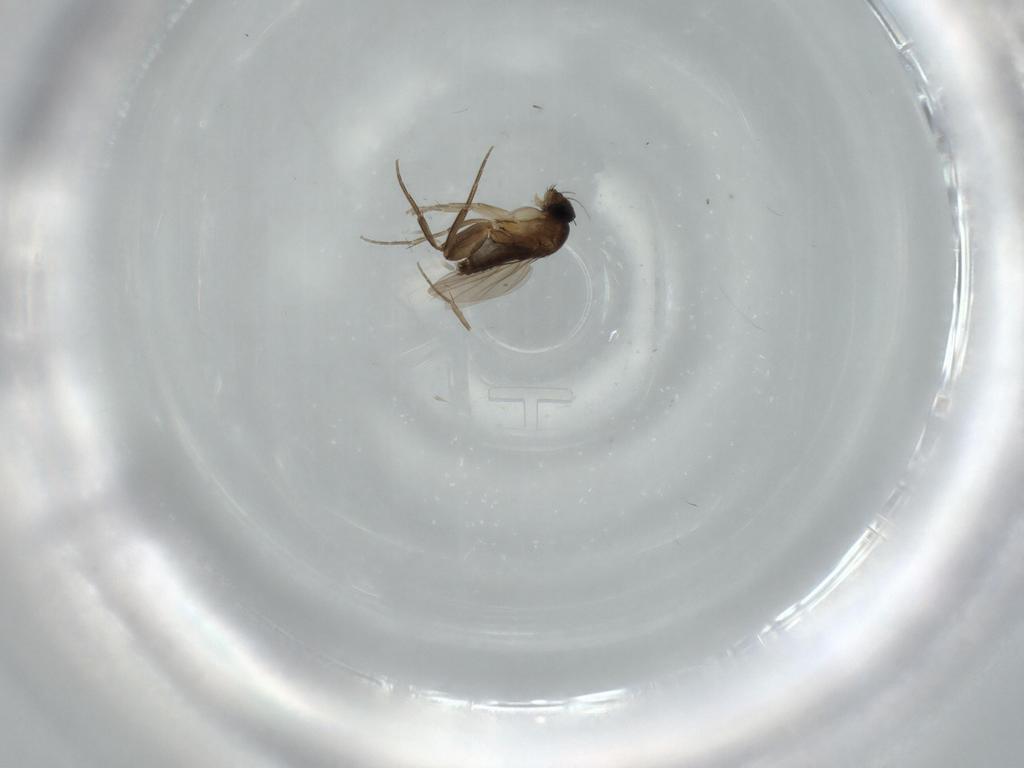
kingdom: Animalia
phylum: Arthropoda
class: Insecta
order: Diptera
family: Phoridae
